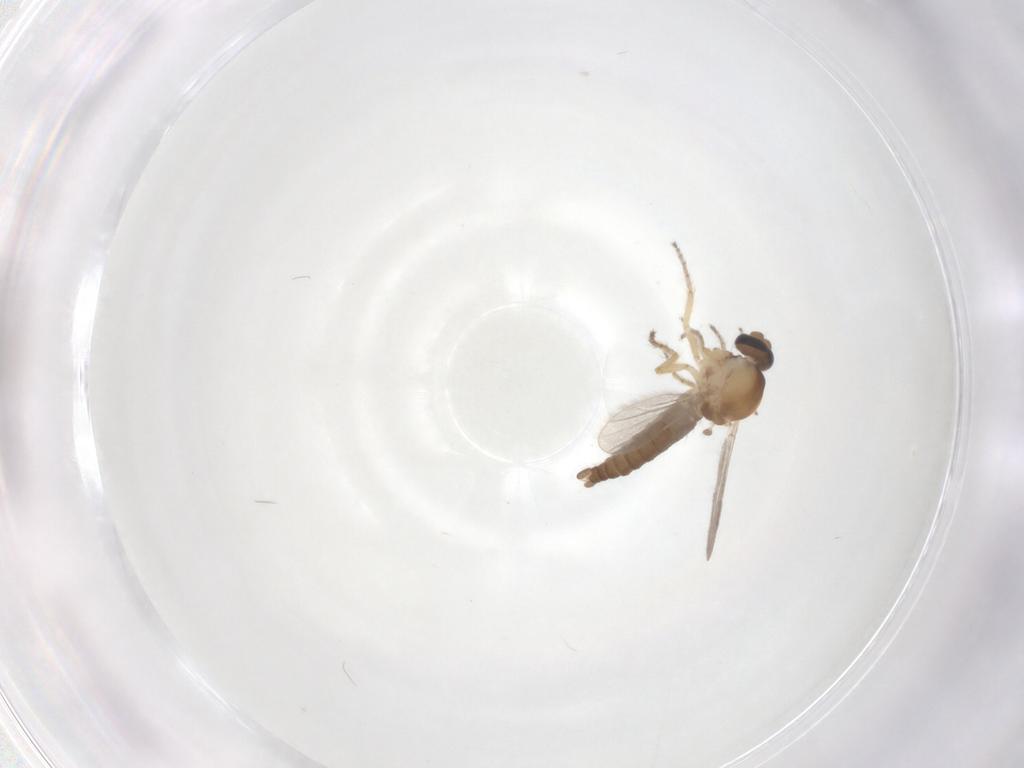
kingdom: Animalia
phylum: Arthropoda
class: Insecta
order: Diptera
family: Ceratopogonidae
